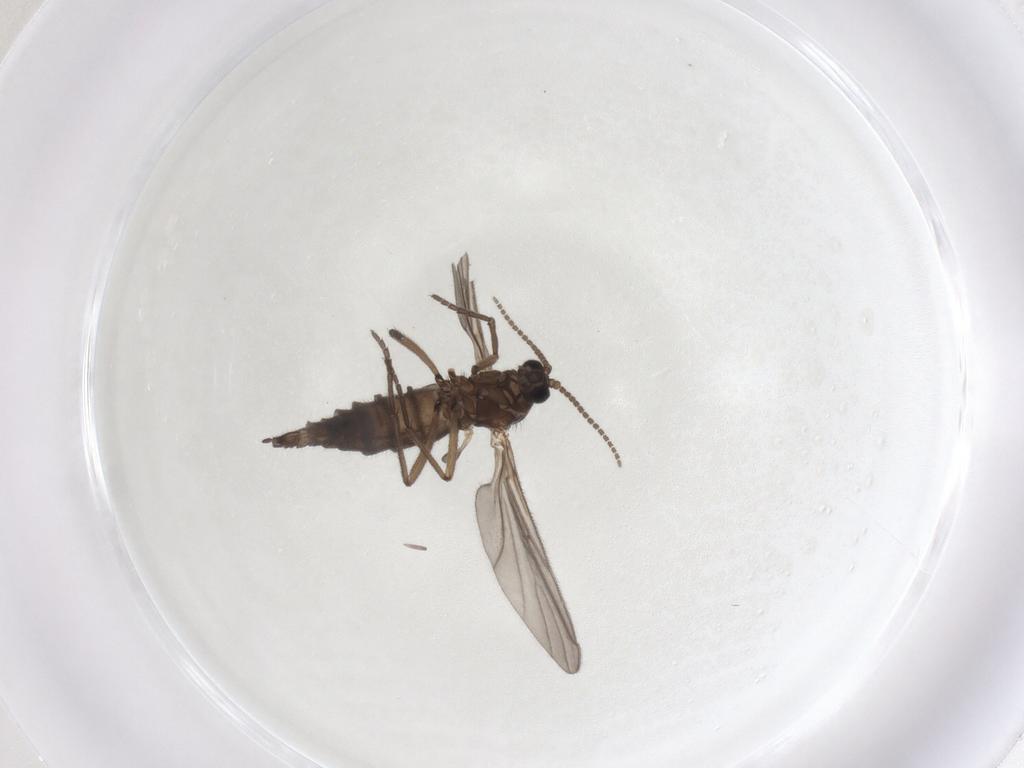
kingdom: Animalia
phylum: Arthropoda
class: Insecta
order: Diptera
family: Sciaridae
